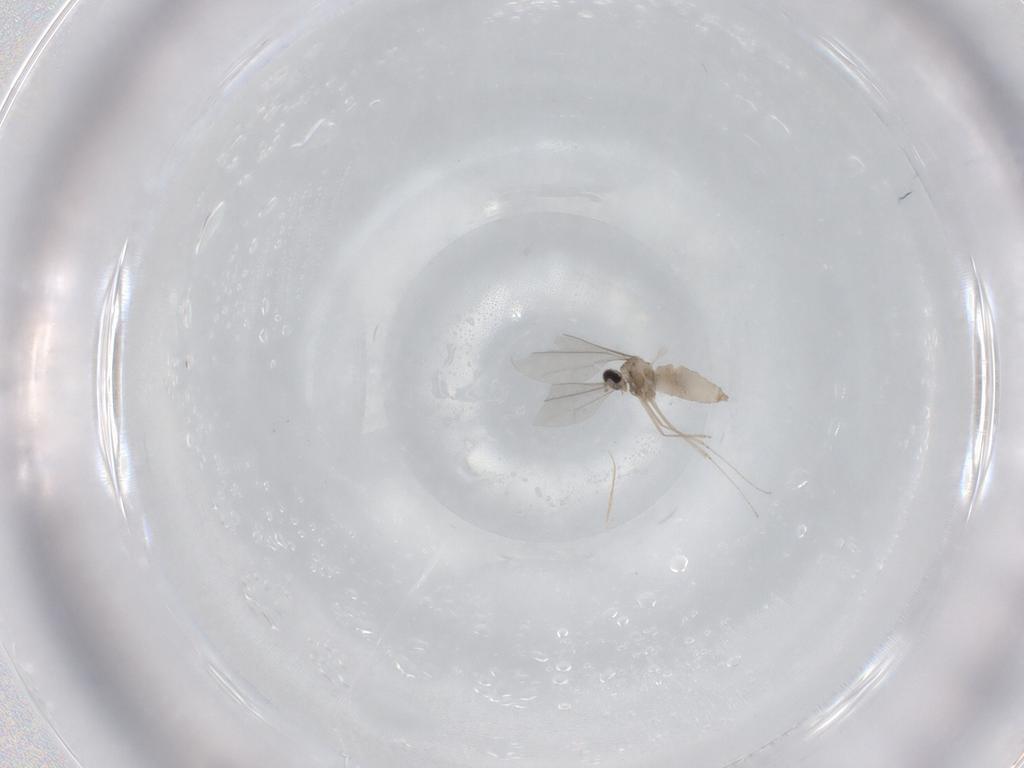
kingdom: Animalia
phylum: Arthropoda
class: Insecta
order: Diptera
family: Cecidomyiidae
